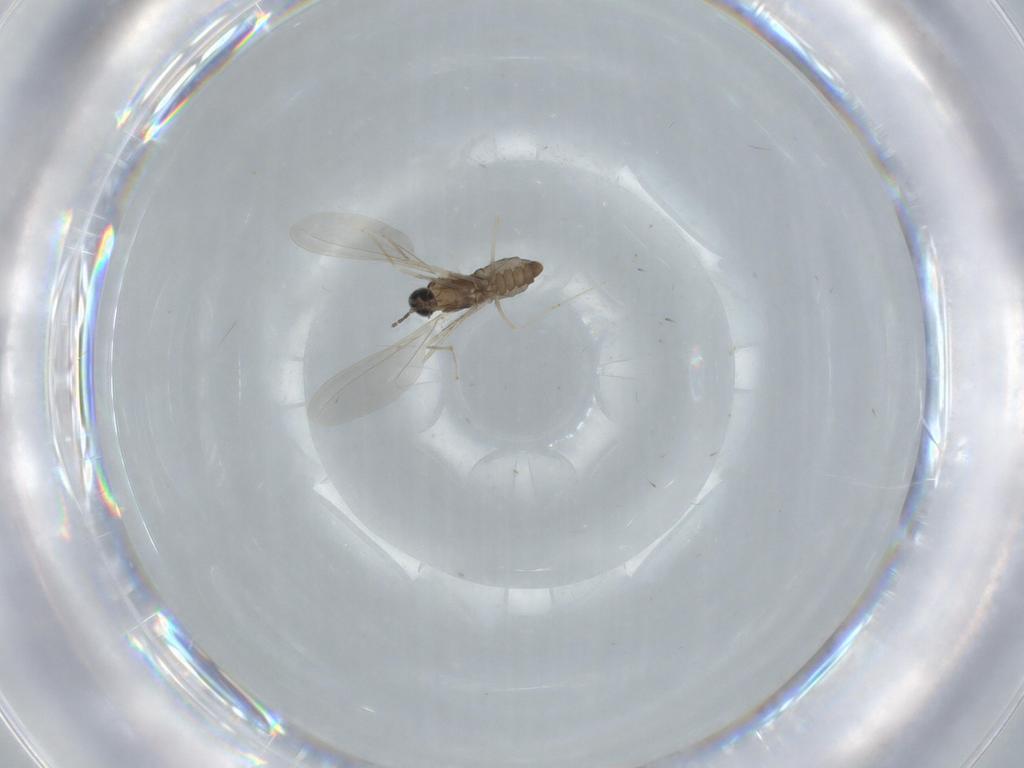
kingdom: Animalia
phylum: Arthropoda
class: Insecta
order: Diptera
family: Cecidomyiidae
